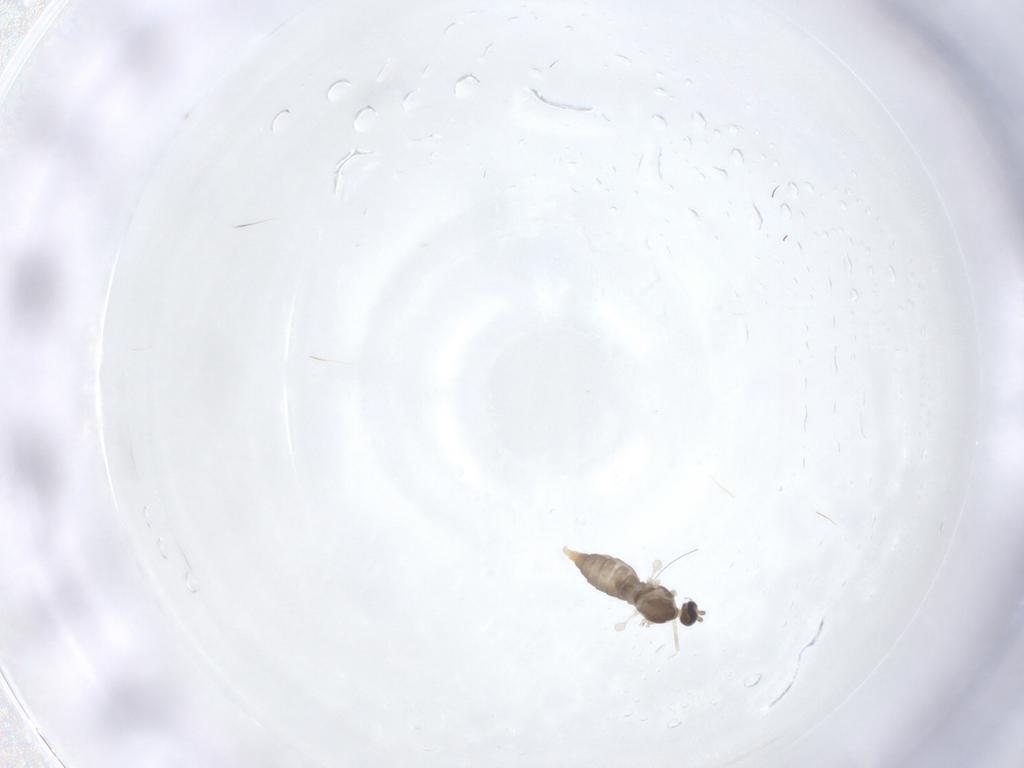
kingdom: Animalia
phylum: Arthropoda
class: Insecta
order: Diptera
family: Cecidomyiidae
